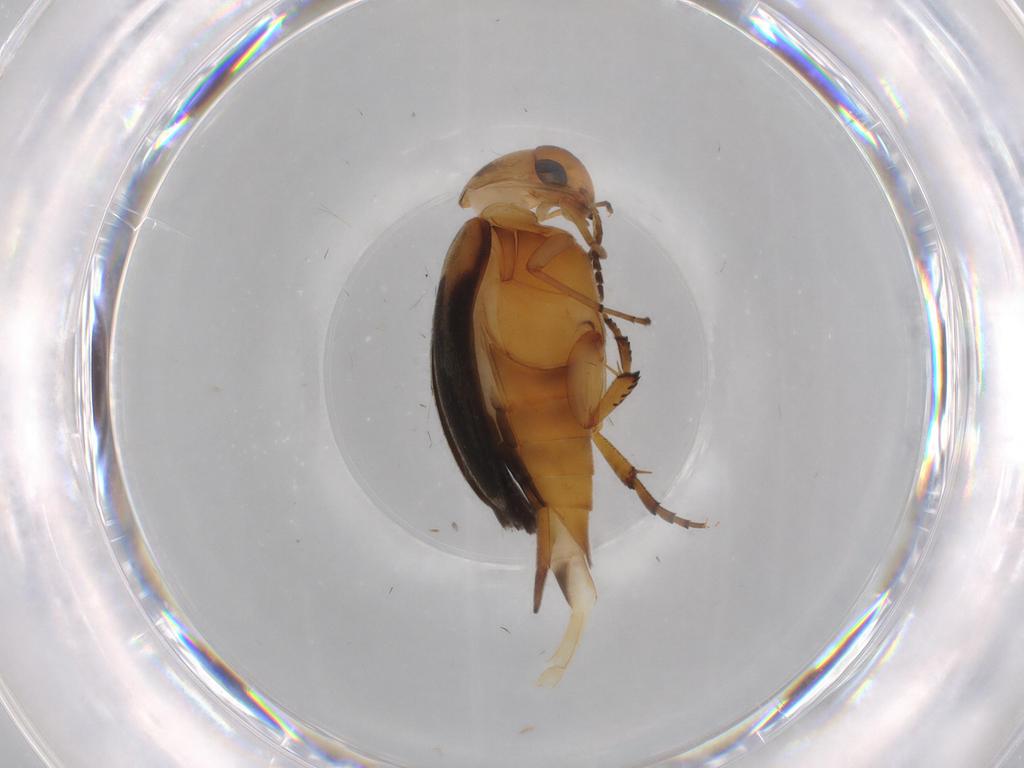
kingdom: Animalia
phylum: Arthropoda
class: Insecta
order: Coleoptera
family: Mordellidae
